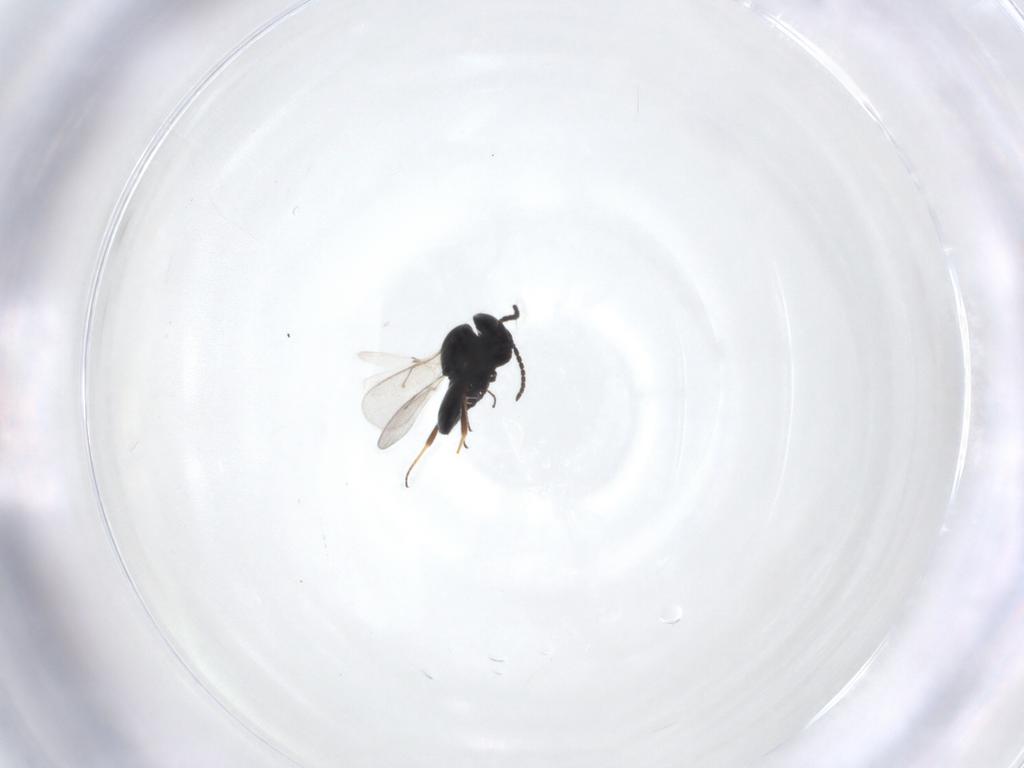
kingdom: Animalia
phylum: Arthropoda
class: Insecta
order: Hymenoptera
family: Scelionidae
